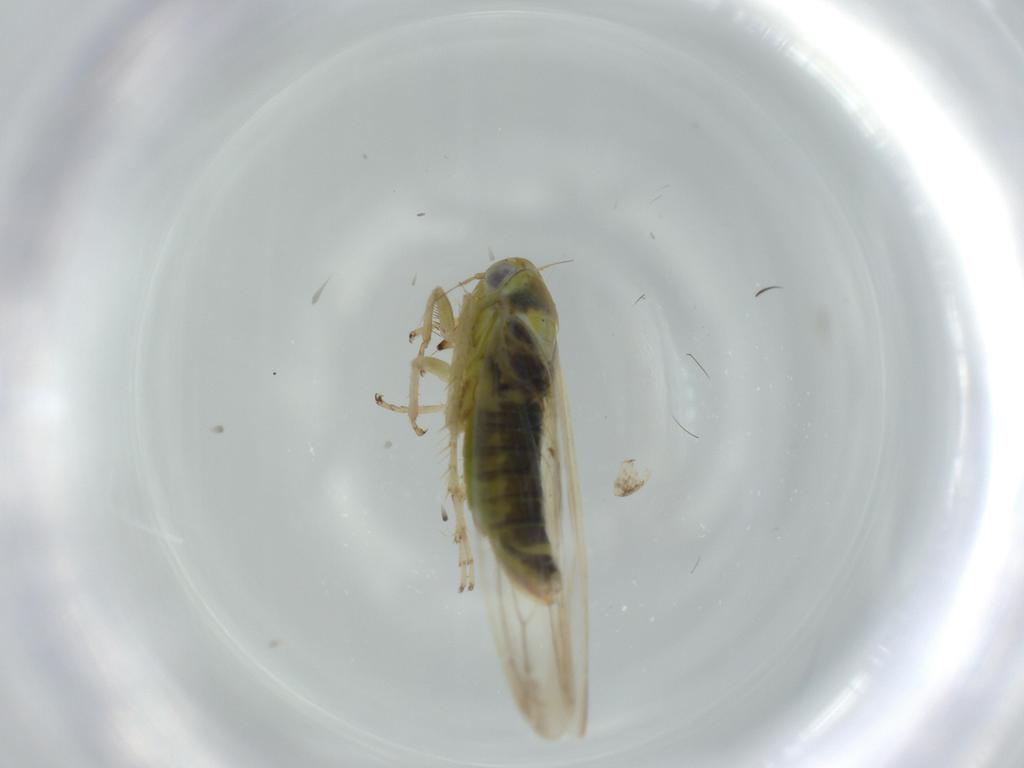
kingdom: Animalia
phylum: Arthropoda
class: Insecta
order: Hemiptera
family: Cicadellidae
